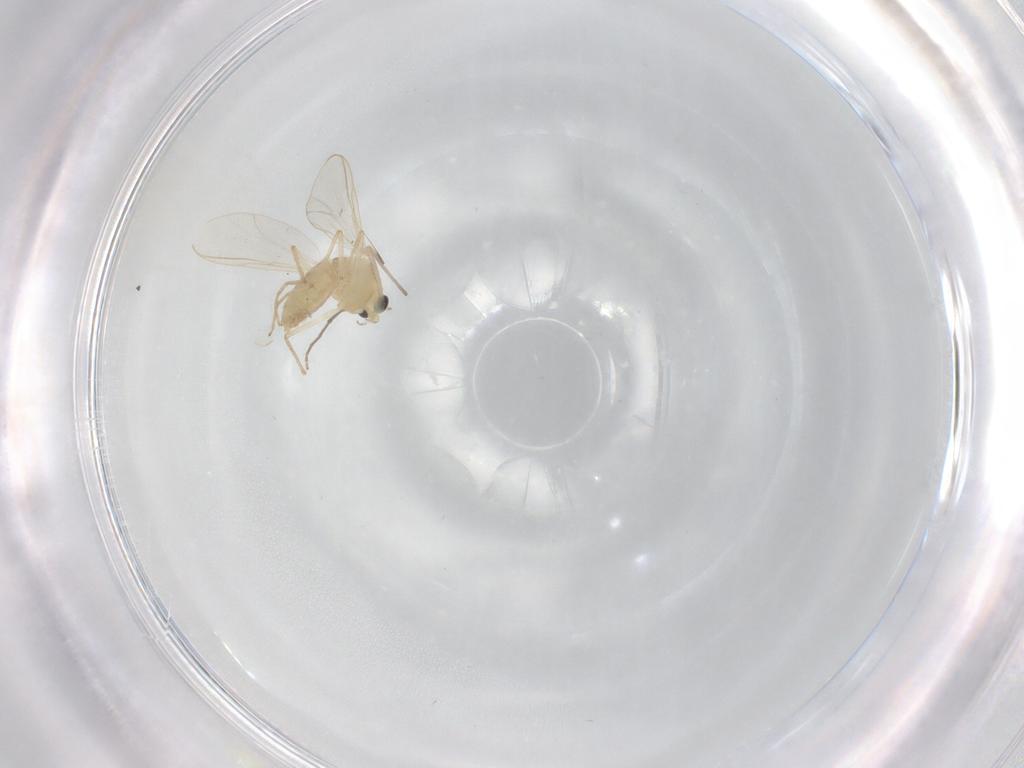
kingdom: Animalia
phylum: Arthropoda
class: Insecta
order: Diptera
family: Chironomidae
